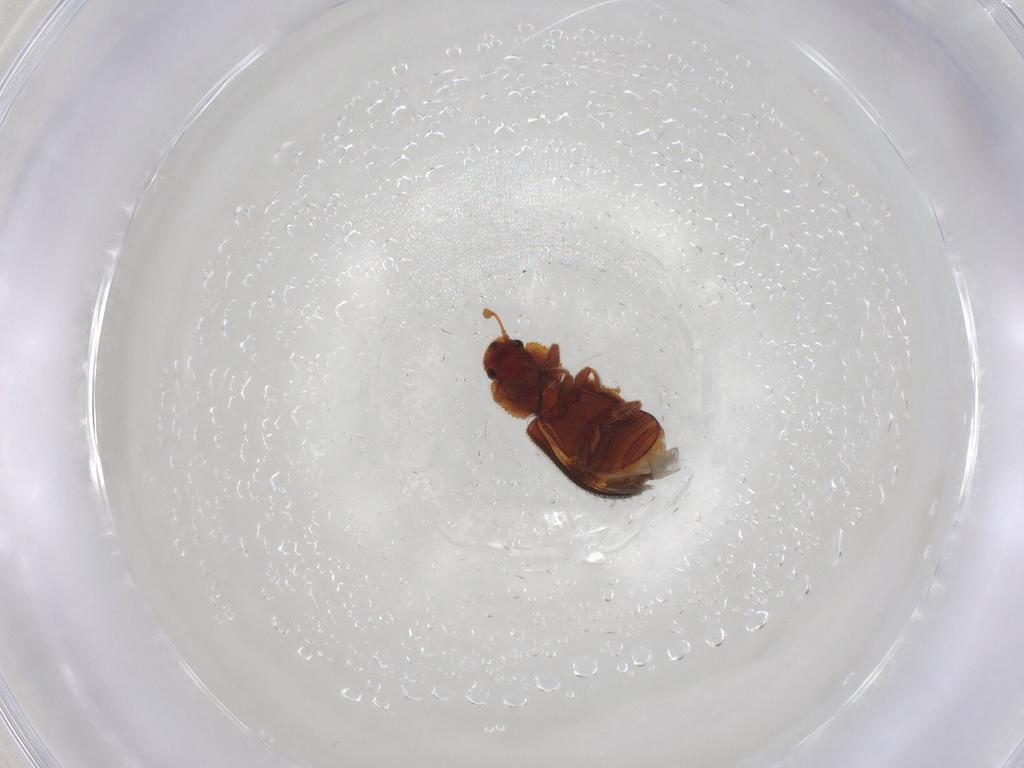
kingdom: Animalia
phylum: Arthropoda
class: Insecta
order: Coleoptera
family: Zopheridae
